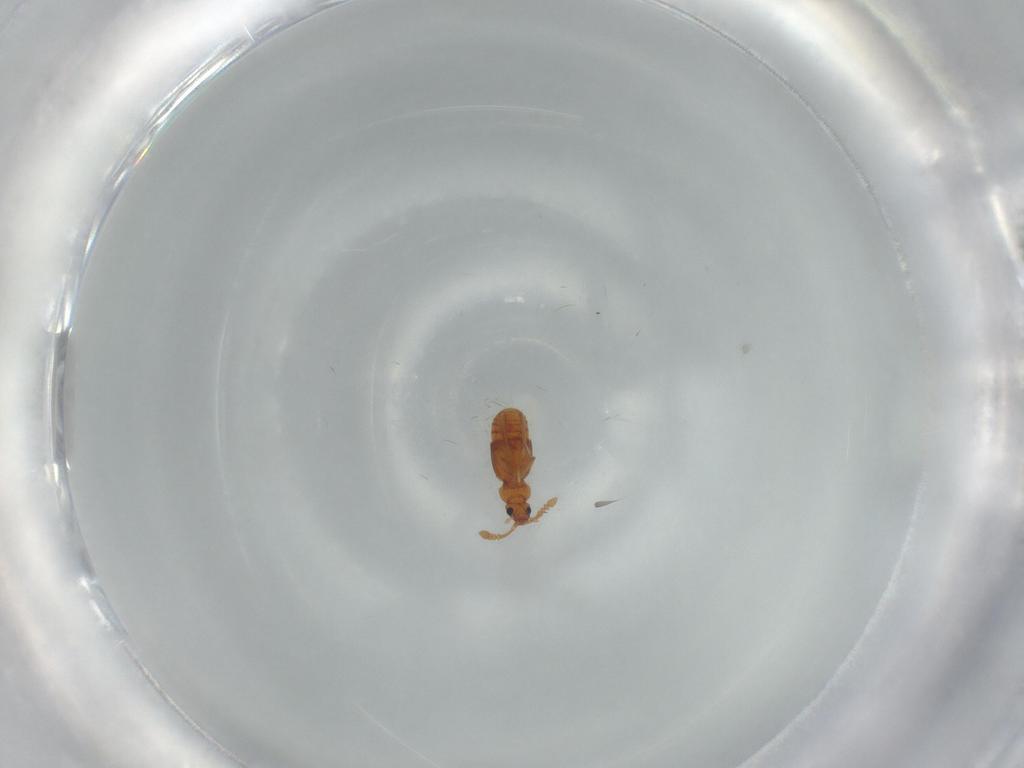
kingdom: Animalia
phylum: Arthropoda
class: Insecta
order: Coleoptera
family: Staphylinidae
